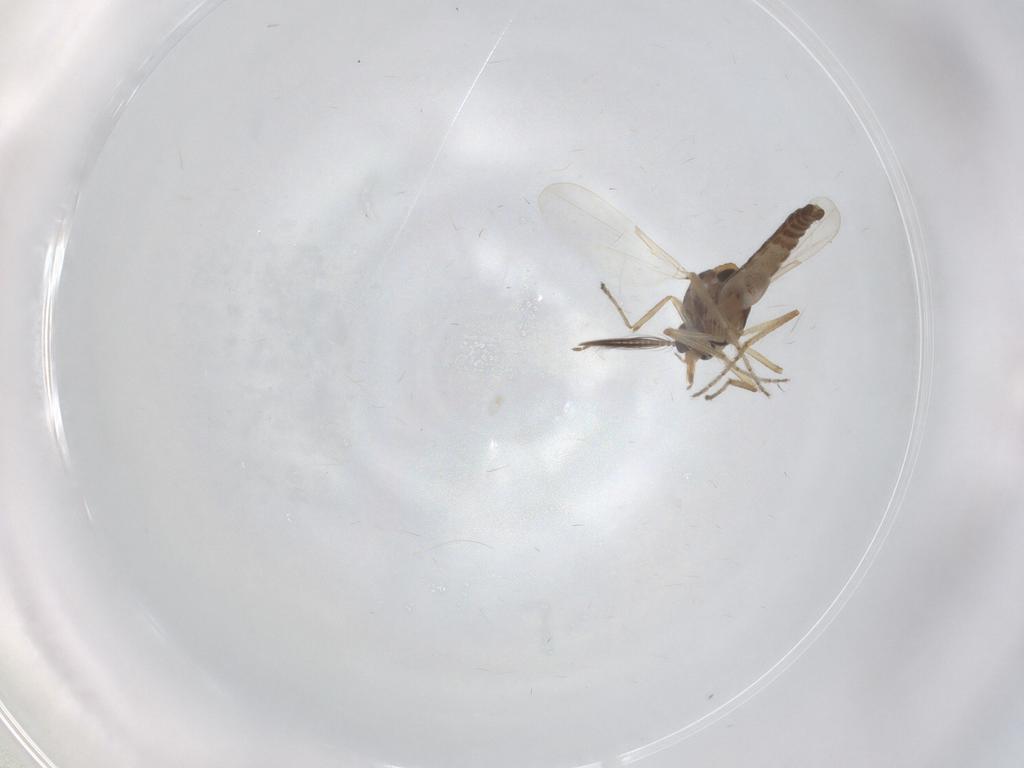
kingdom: Animalia
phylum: Arthropoda
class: Insecta
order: Diptera
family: Ceratopogonidae
